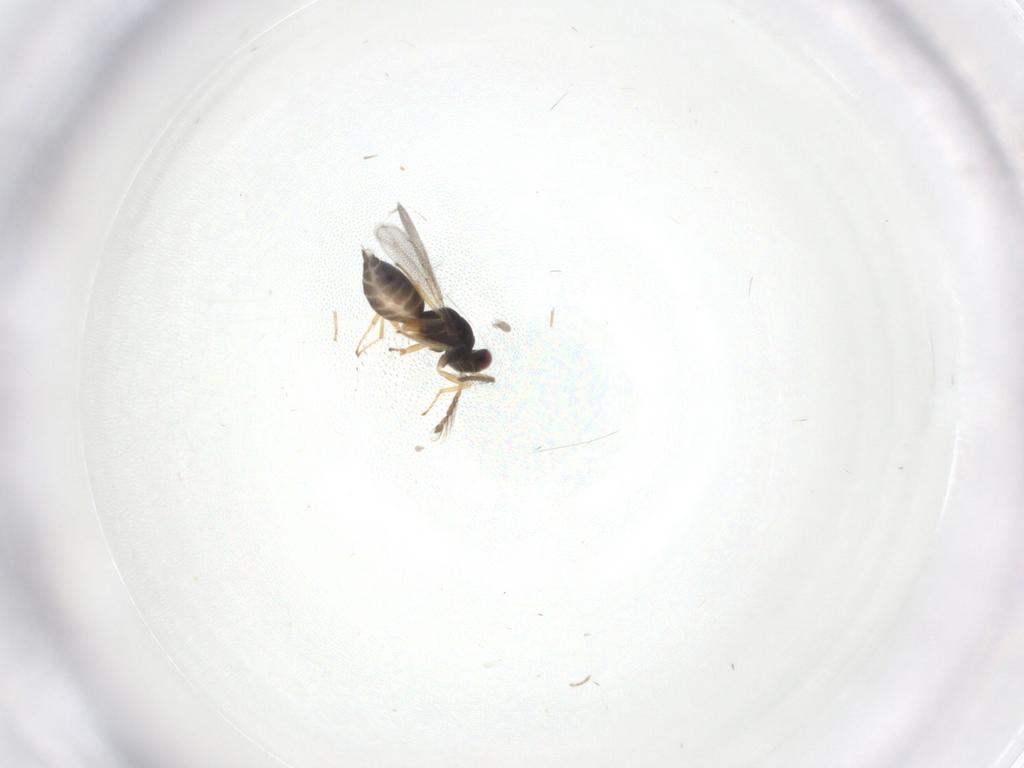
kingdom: Animalia
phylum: Arthropoda
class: Insecta
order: Hymenoptera
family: Eulophidae
